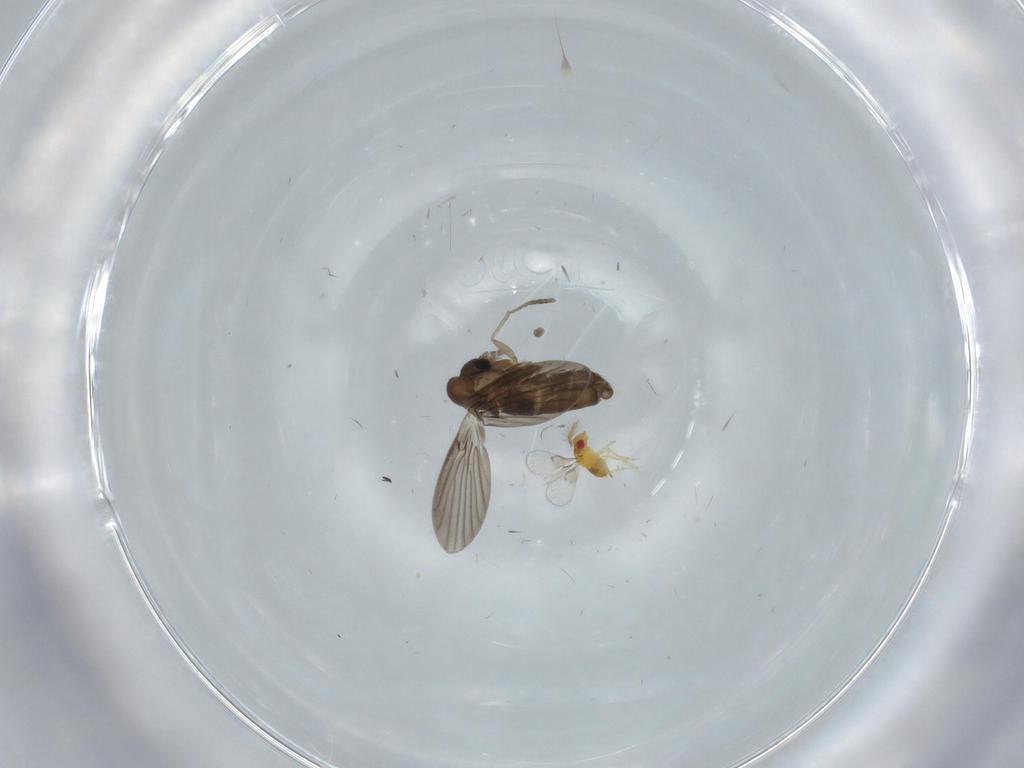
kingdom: Animalia
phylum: Arthropoda
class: Insecta
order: Diptera
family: Chironomidae
